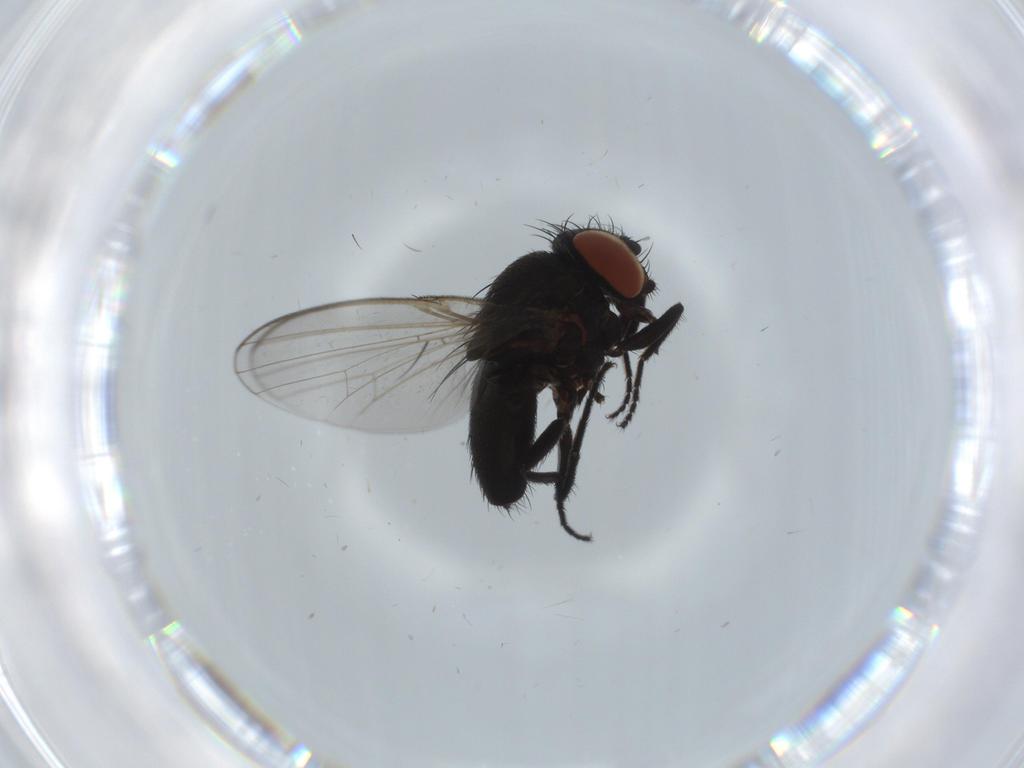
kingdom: Animalia
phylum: Arthropoda
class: Insecta
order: Diptera
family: Milichiidae
